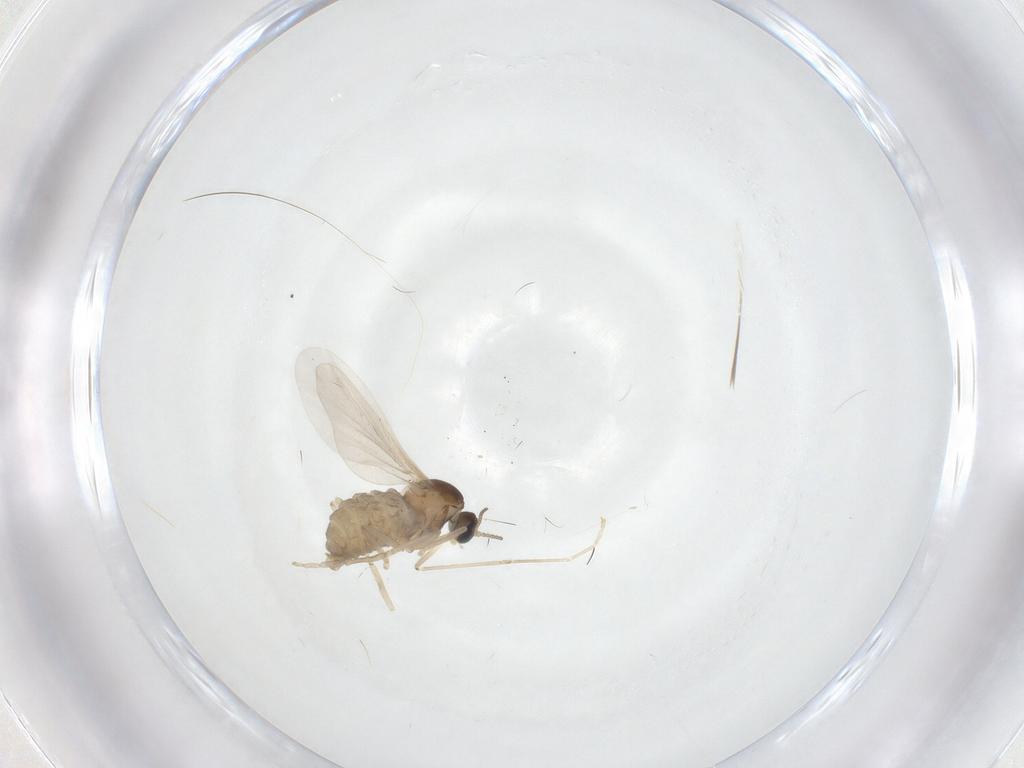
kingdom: Animalia
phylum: Arthropoda
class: Insecta
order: Diptera
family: Cecidomyiidae
